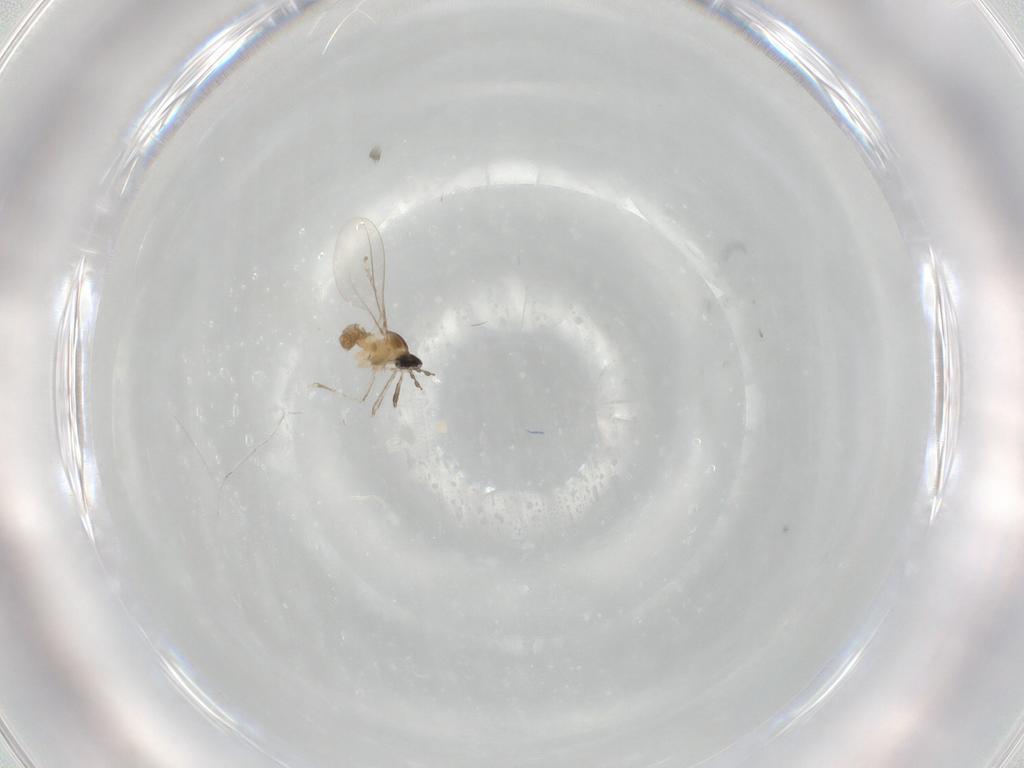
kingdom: Animalia
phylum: Arthropoda
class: Insecta
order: Diptera
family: Cecidomyiidae
